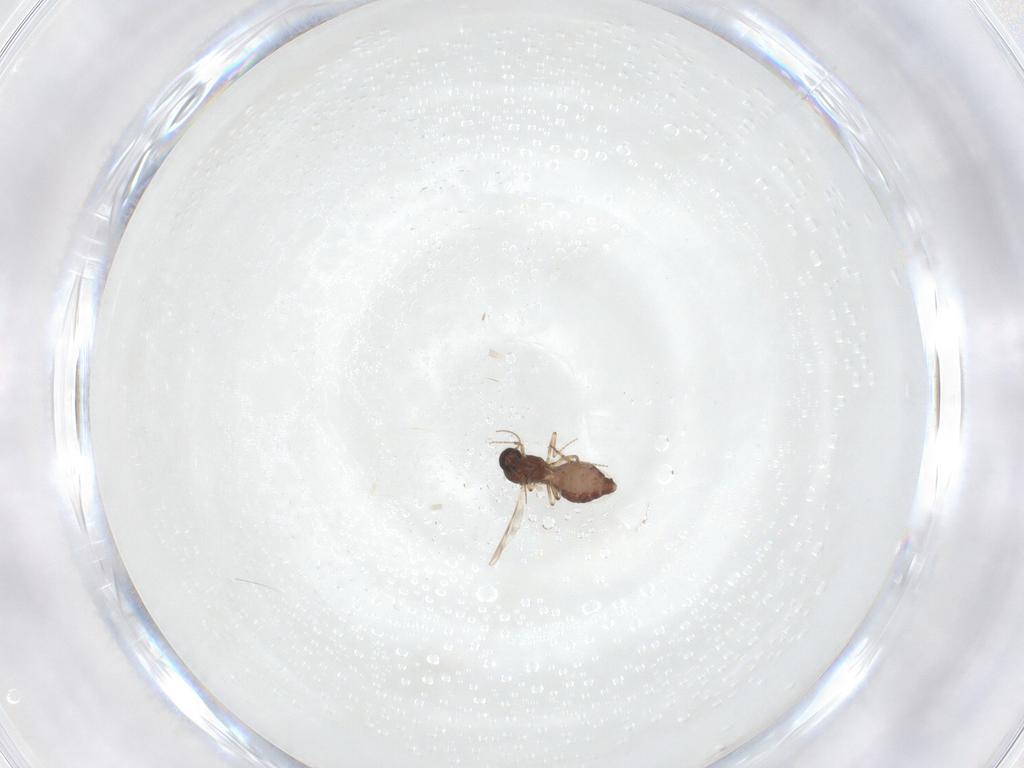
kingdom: Animalia
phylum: Arthropoda
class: Insecta
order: Diptera
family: Ceratopogonidae
